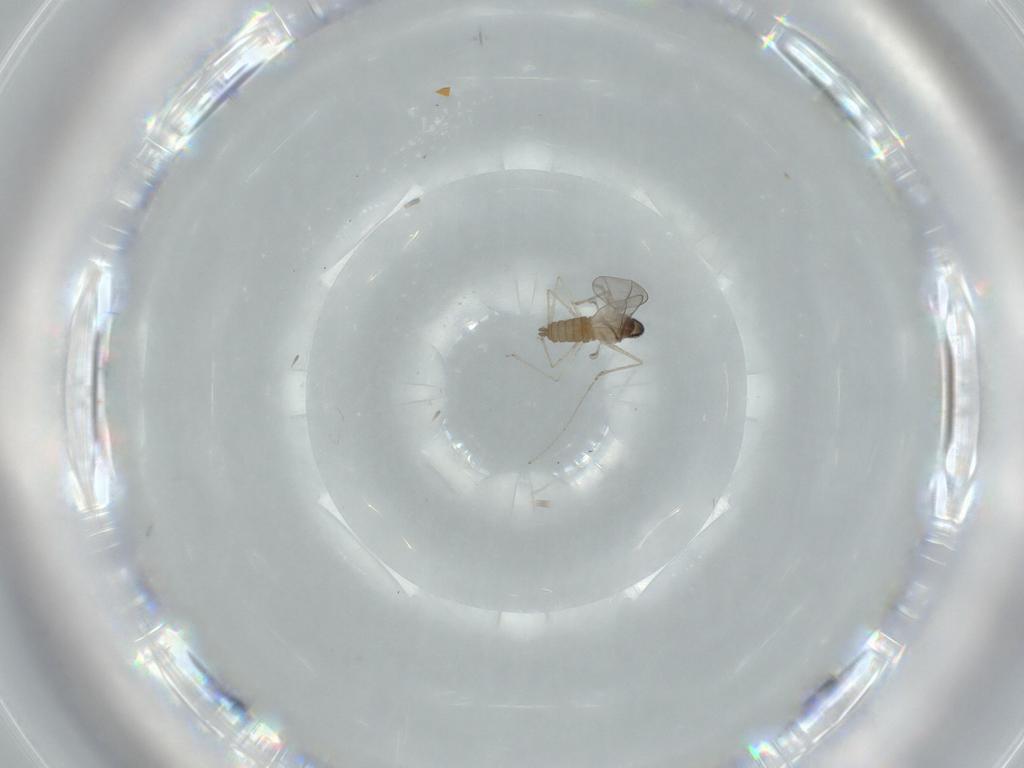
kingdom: Animalia
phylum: Arthropoda
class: Insecta
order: Diptera
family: Cecidomyiidae
